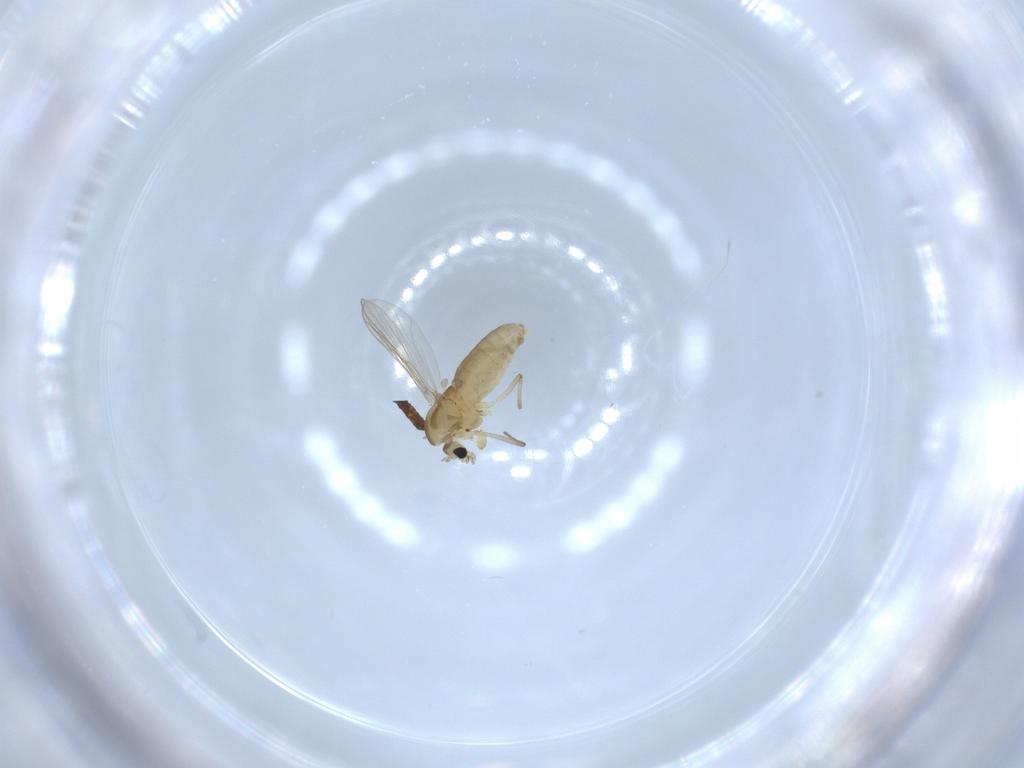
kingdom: Animalia
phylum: Arthropoda
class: Insecta
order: Diptera
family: Chironomidae
